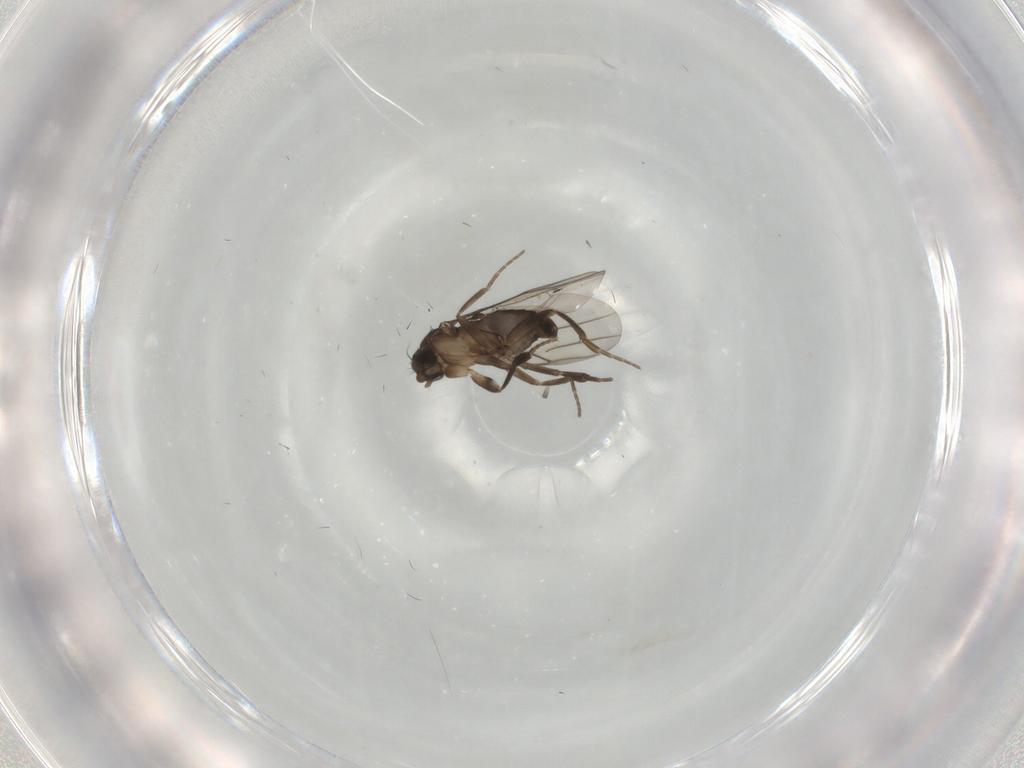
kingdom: Animalia
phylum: Arthropoda
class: Insecta
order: Diptera
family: Phoridae
